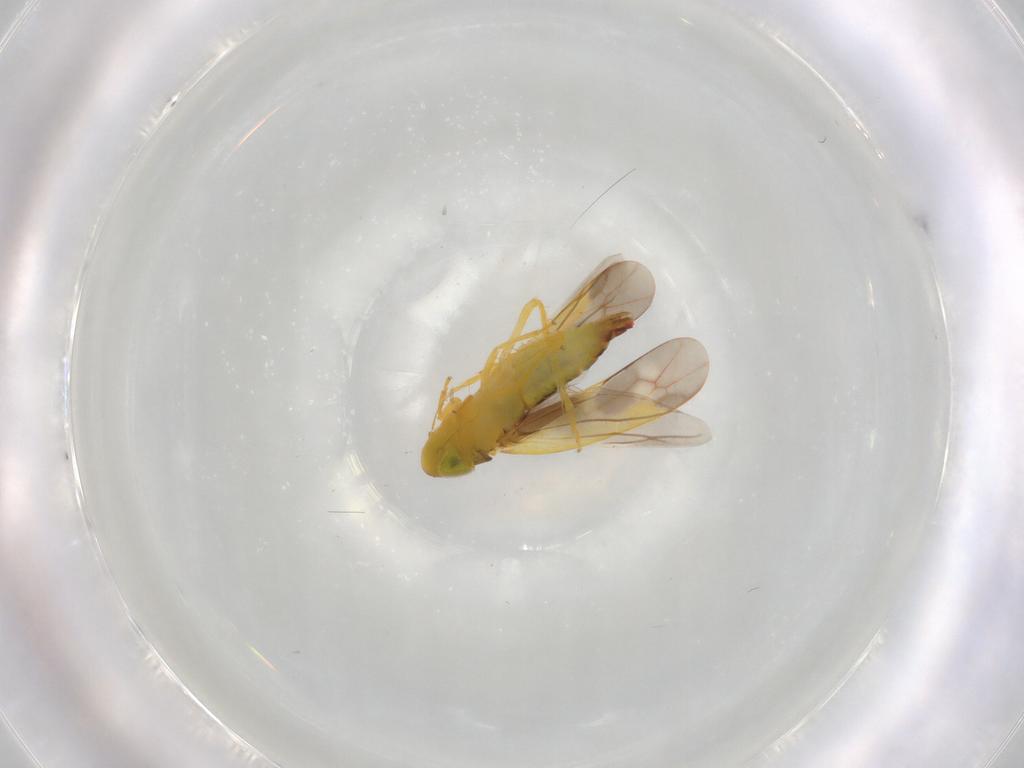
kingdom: Animalia
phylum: Arthropoda
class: Insecta
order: Hemiptera
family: Cicadellidae
